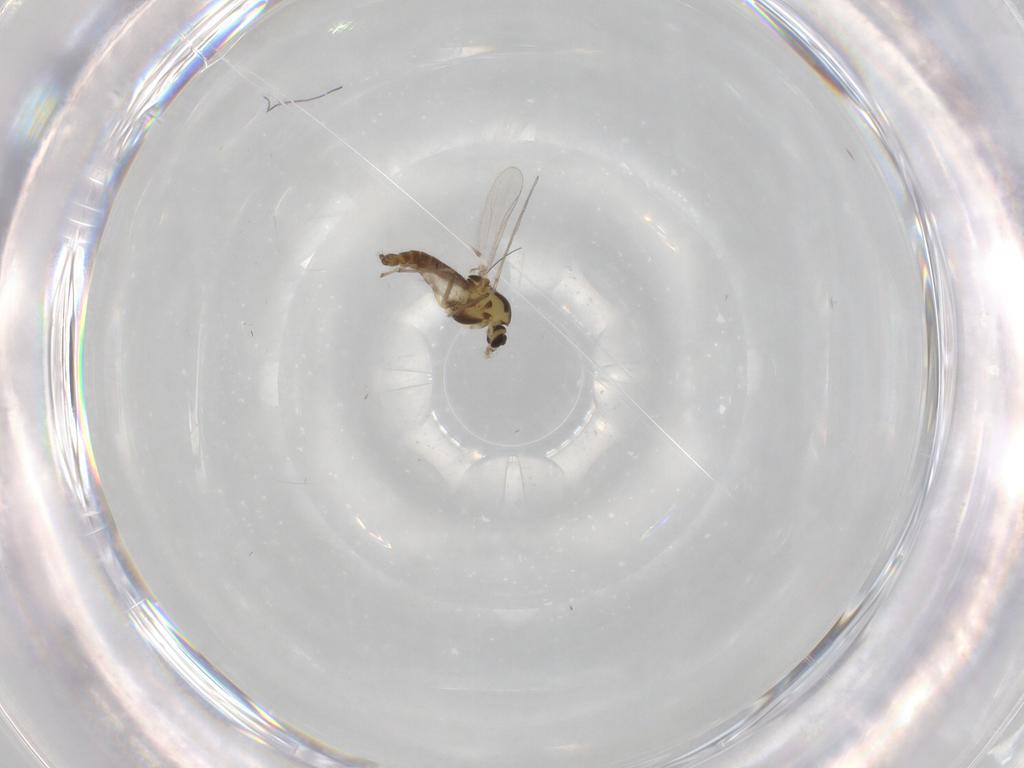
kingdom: Animalia
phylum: Arthropoda
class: Insecta
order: Diptera
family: Chironomidae
